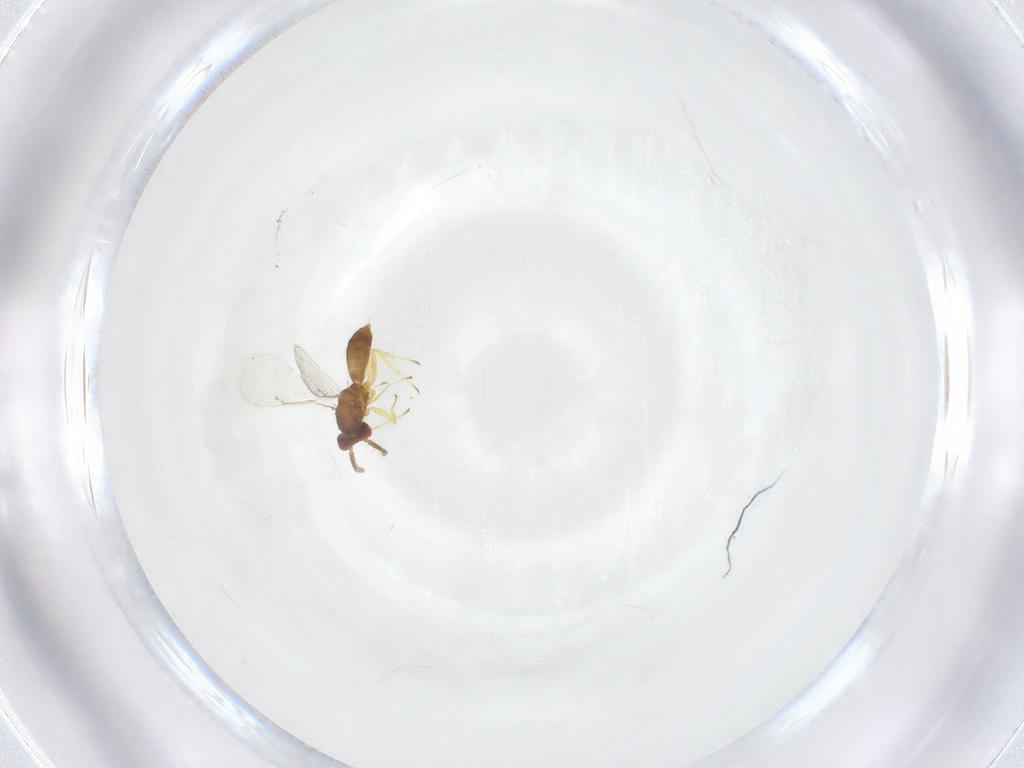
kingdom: Animalia
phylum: Arthropoda
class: Insecta
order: Hymenoptera
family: Eulophidae
